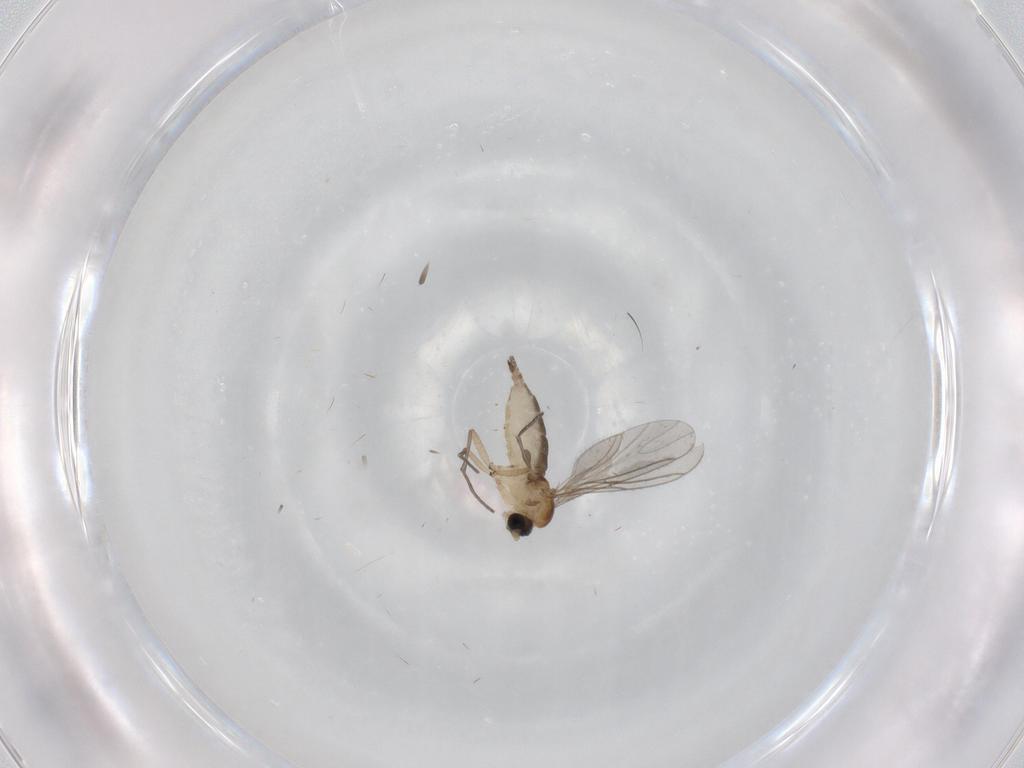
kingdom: Animalia
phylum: Arthropoda
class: Insecta
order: Diptera
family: Sciaridae
